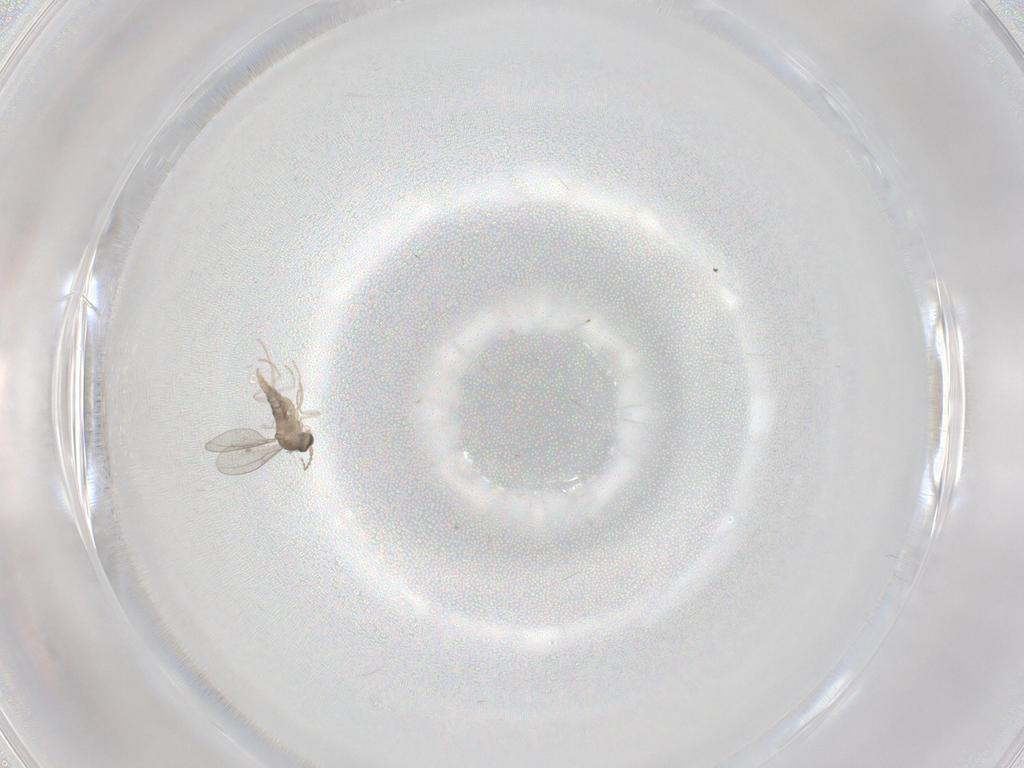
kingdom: Animalia
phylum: Arthropoda
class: Insecta
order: Diptera
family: Cecidomyiidae
